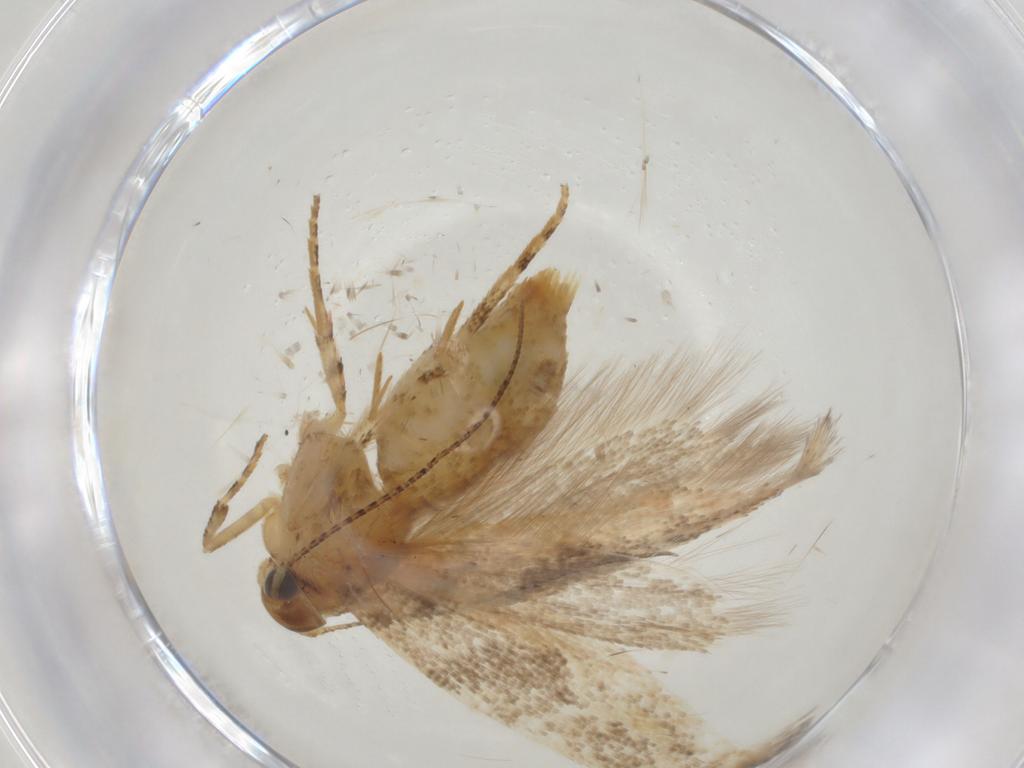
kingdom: Animalia
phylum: Arthropoda
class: Insecta
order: Lepidoptera
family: Gelechiidae
